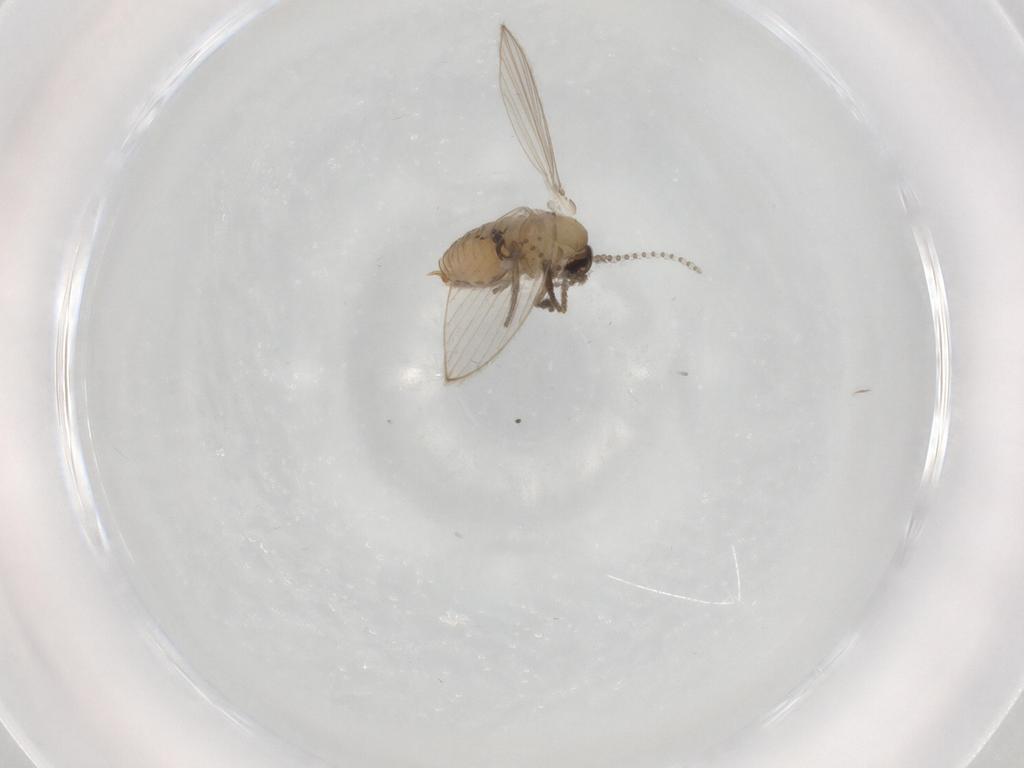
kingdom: Animalia
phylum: Arthropoda
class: Insecta
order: Diptera
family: Psychodidae
